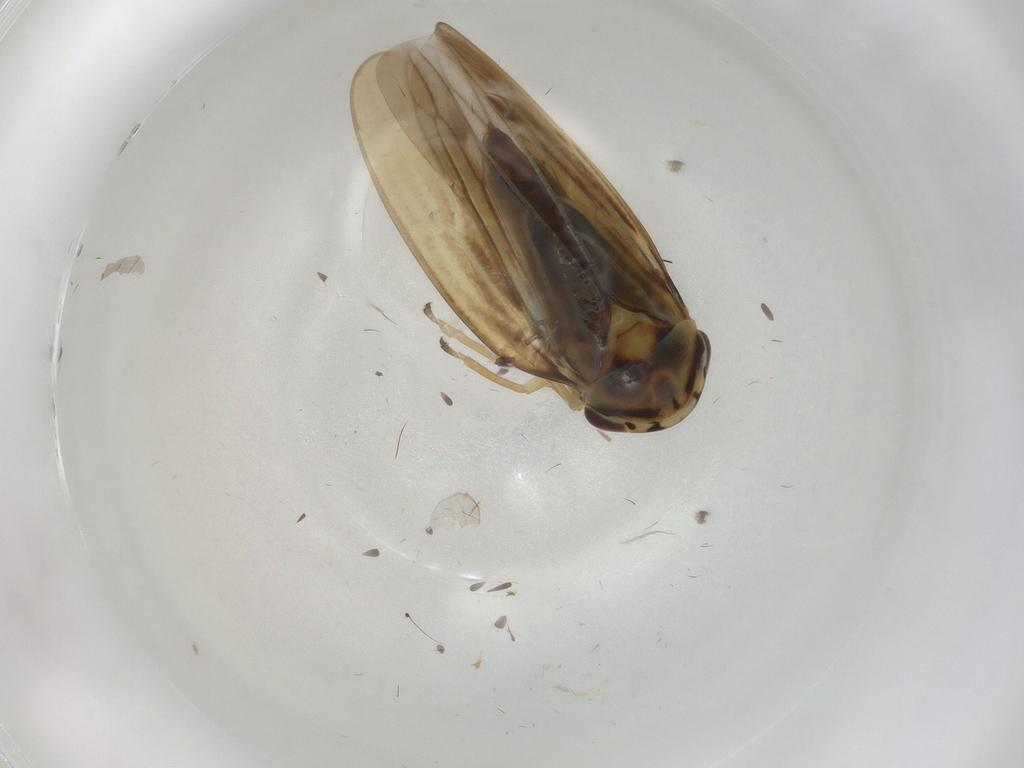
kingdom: Animalia
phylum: Arthropoda
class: Insecta
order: Hemiptera
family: Cicadellidae
